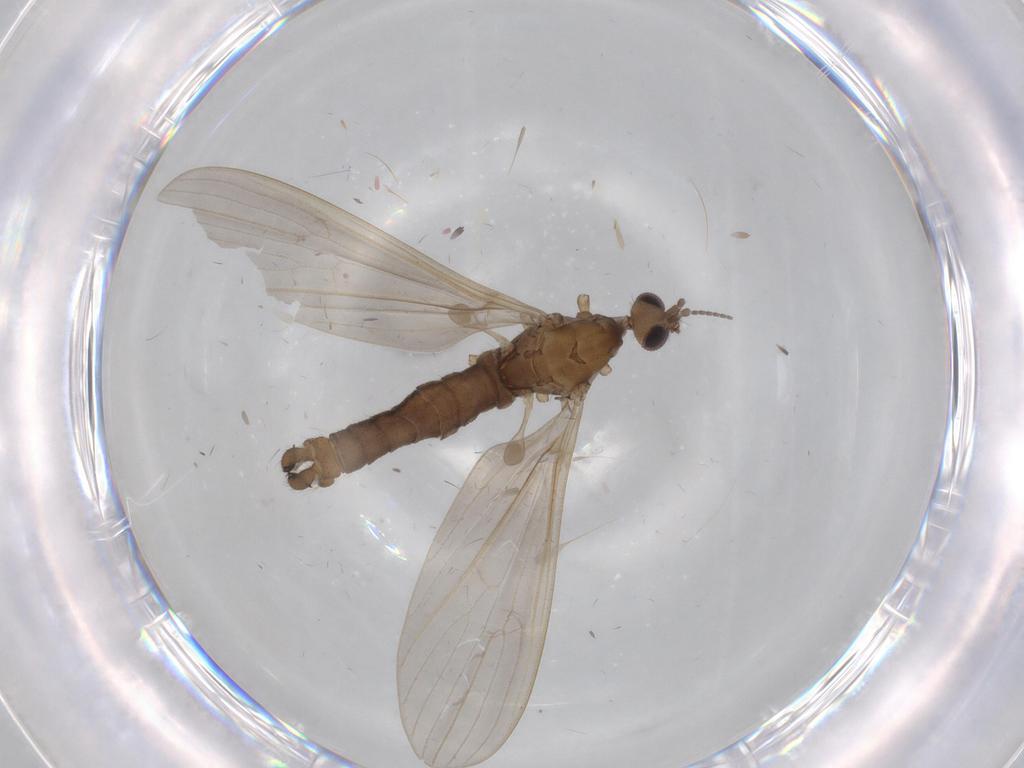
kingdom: Animalia
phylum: Arthropoda
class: Insecta
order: Diptera
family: Limoniidae
